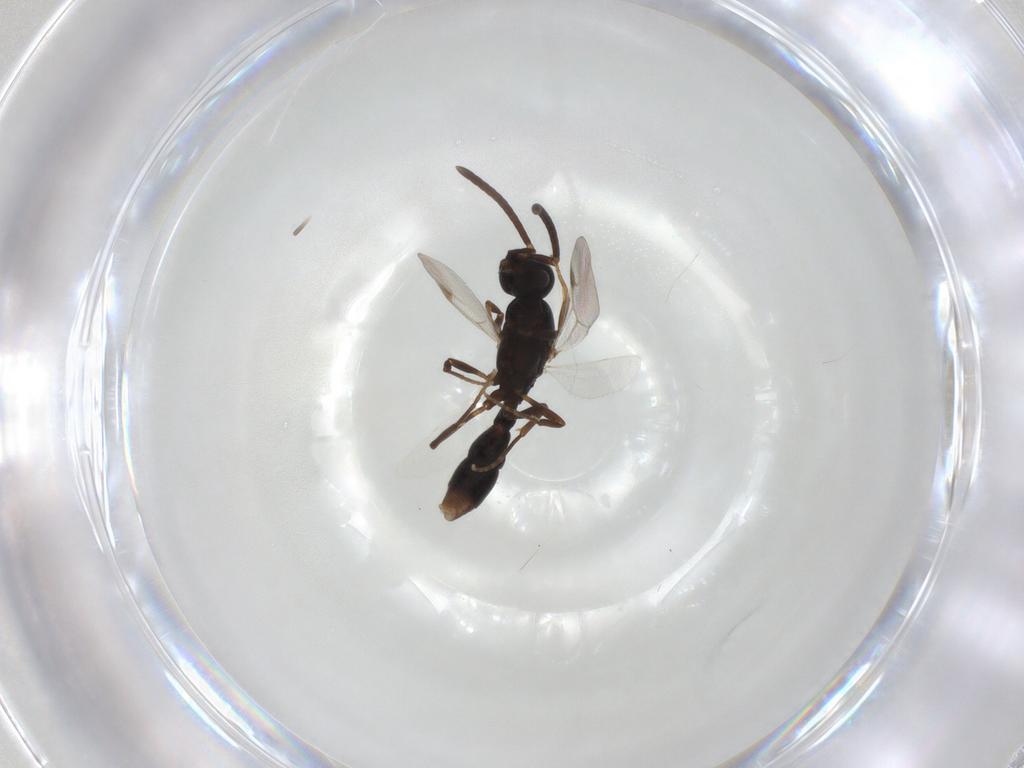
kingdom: Animalia
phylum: Arthropoda
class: Insecta
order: Hymenoptera
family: Formicidae
